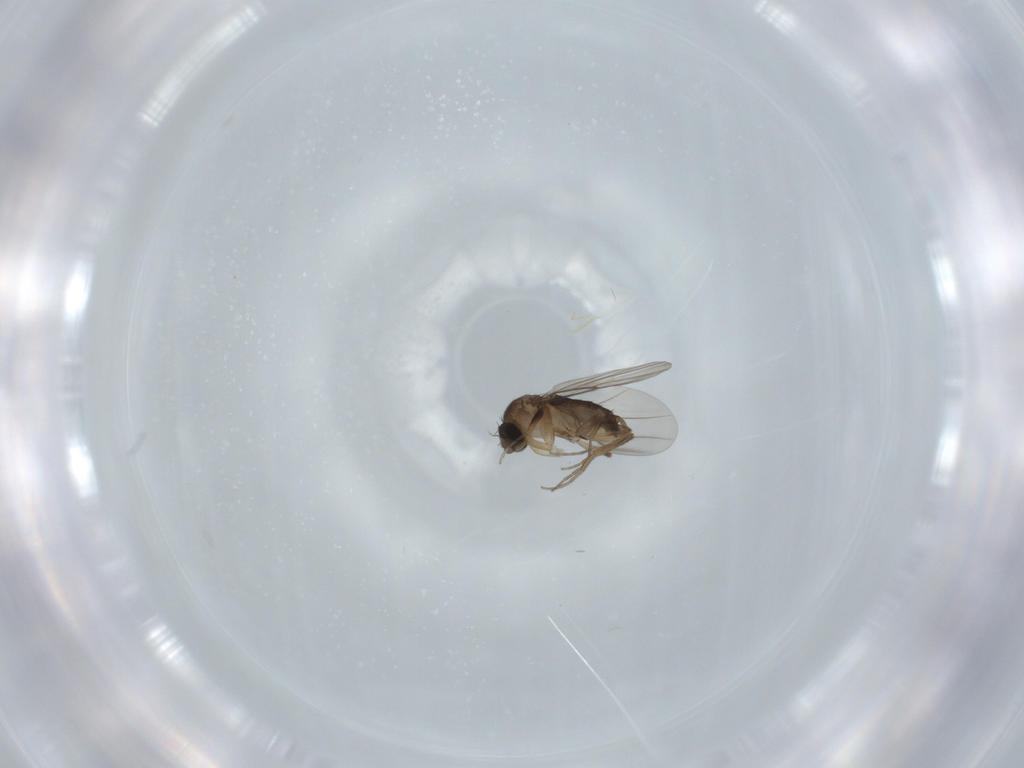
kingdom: Animalia
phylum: Arthropoda
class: Insecta
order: Diptera
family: Phoridae
